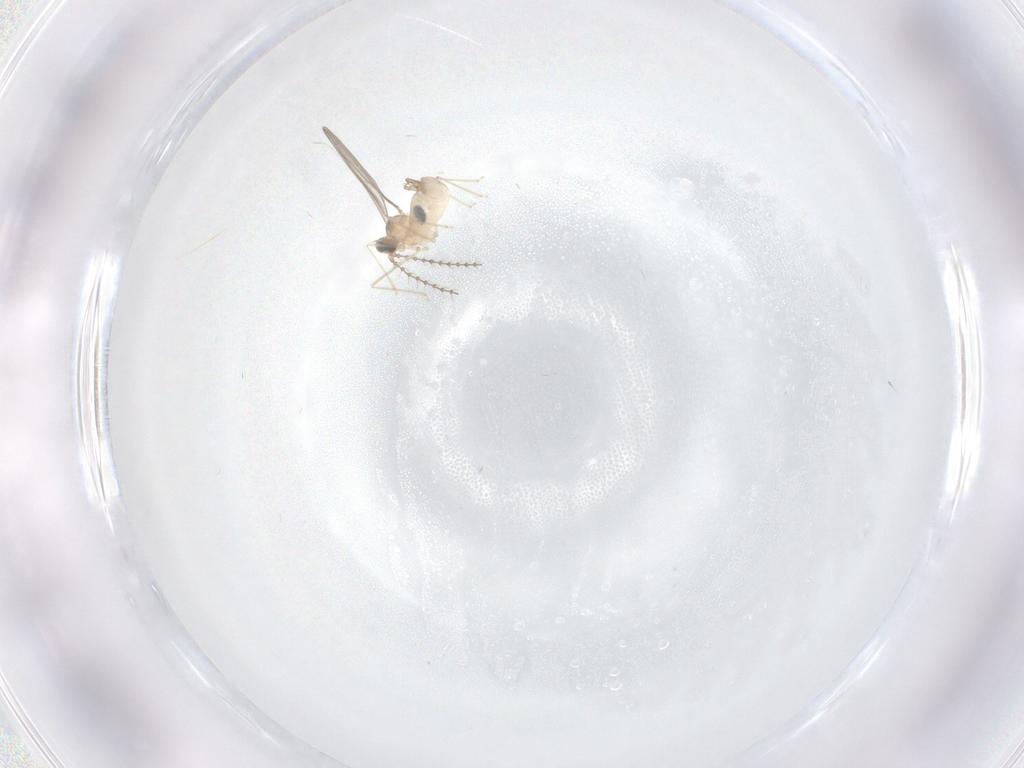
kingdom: Animalia
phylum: Arthropoda
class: Insecta
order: Diptera
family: Cecidomyiidae
